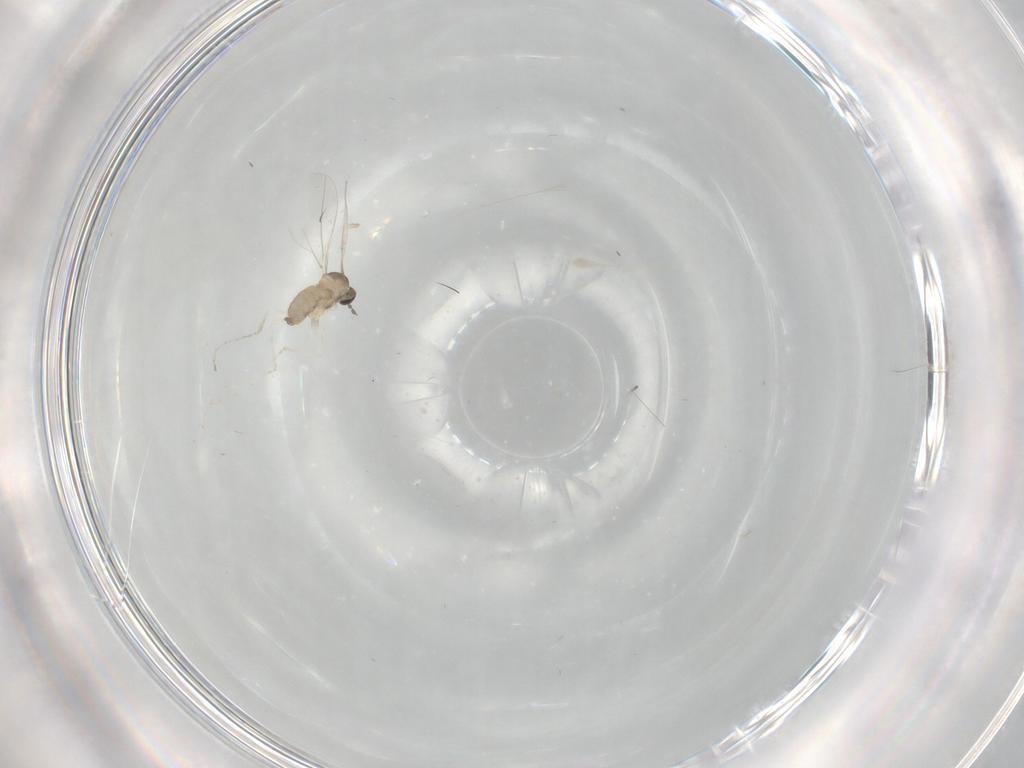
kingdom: Animalia
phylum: Arthropoda
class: Insecta
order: Diptera
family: Cecidomyiidae
